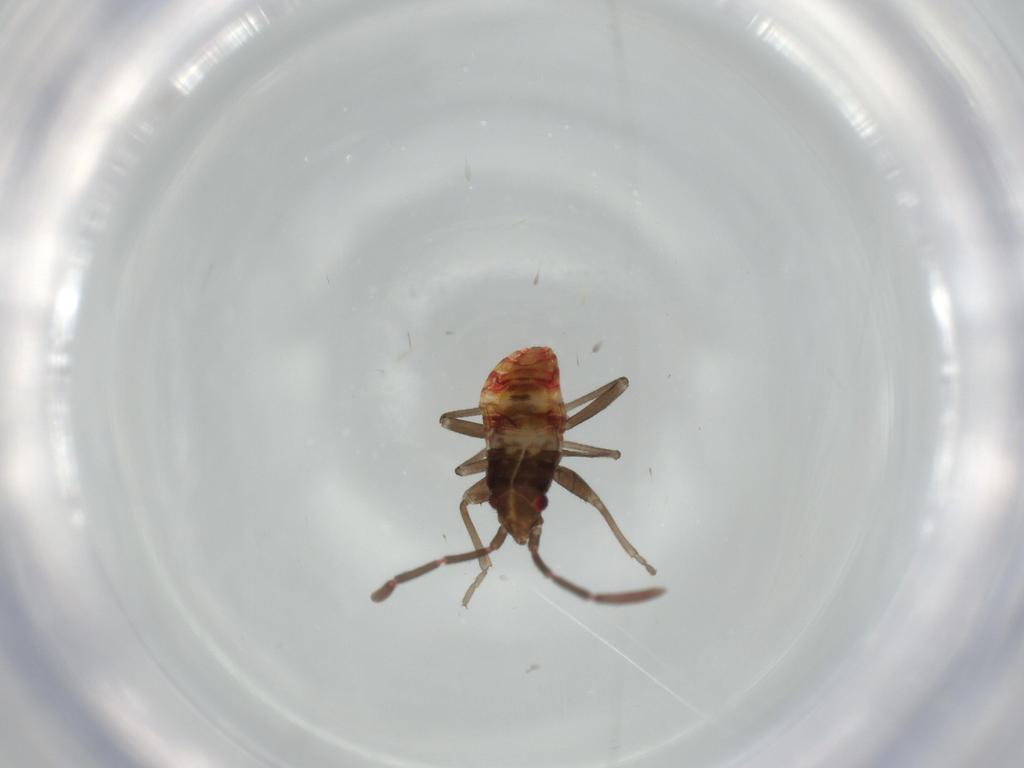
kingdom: Animalia
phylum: Arthropoda
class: Insecta
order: Hemiptera
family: Rhyparochromidae
